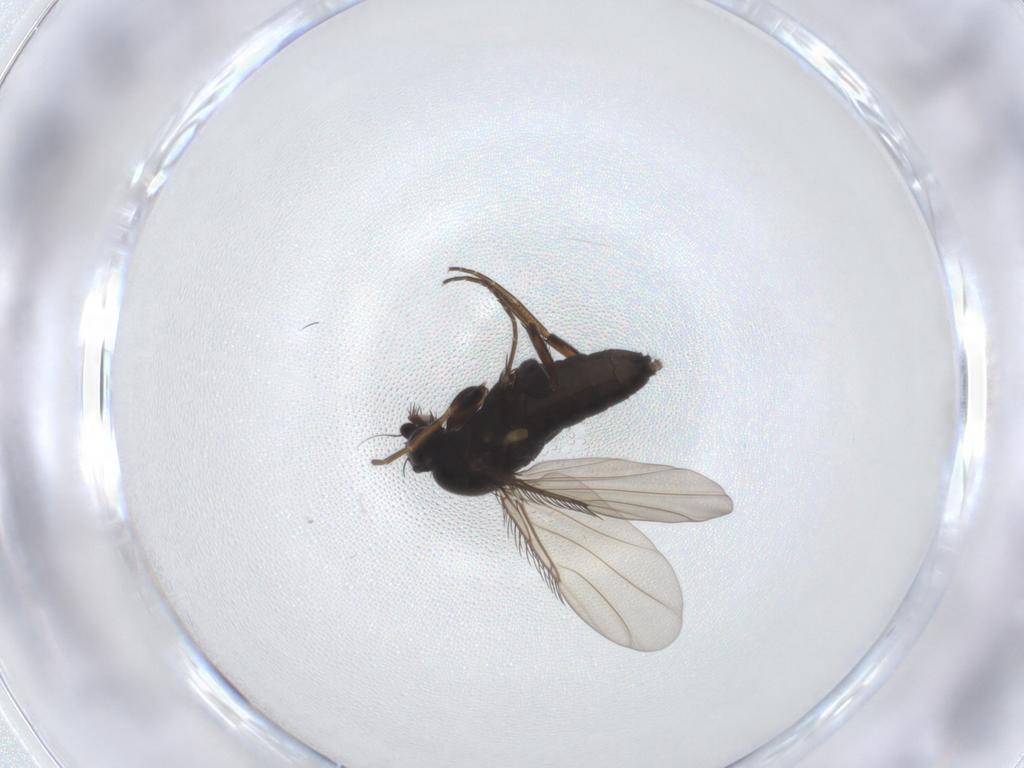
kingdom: Animalia
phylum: Arthropoda
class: Insecta
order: Diptera
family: Phoridae
